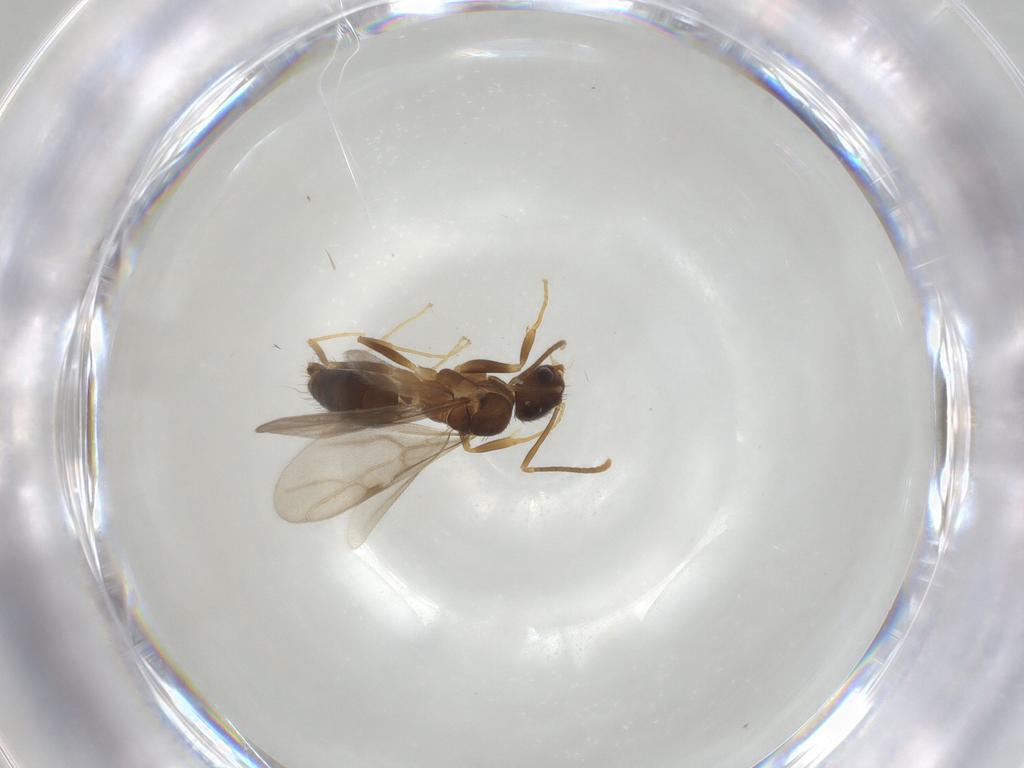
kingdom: Animalia
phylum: Arthropoda
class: Insecta
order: Hymenoptera
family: Formicidae
